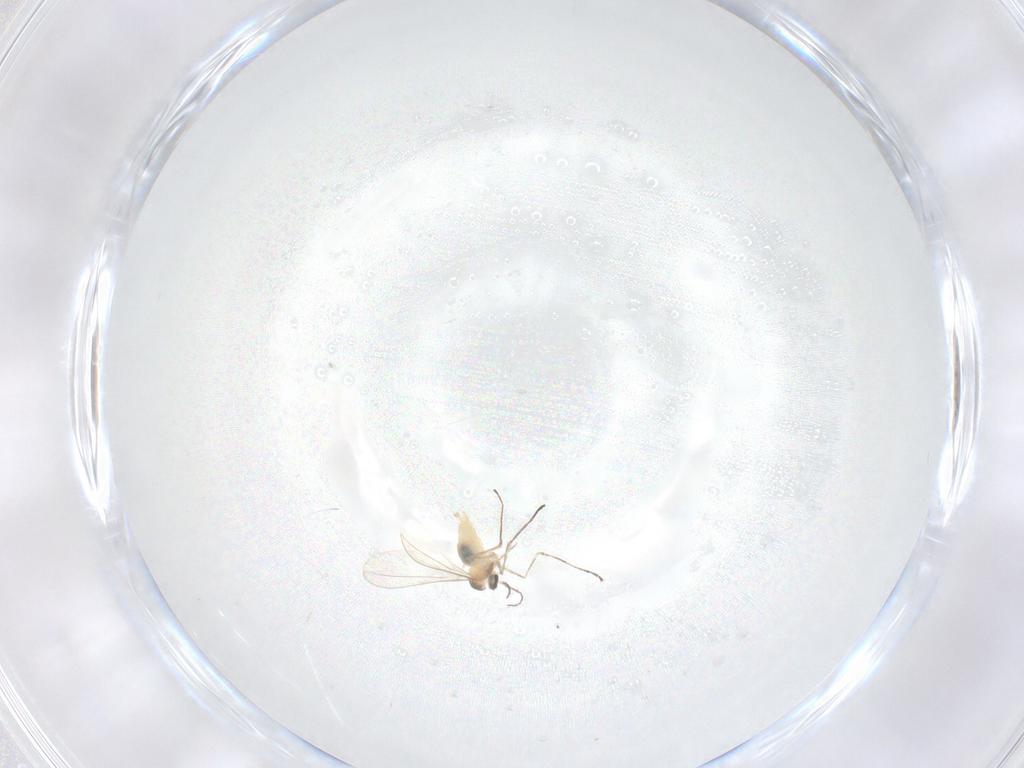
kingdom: Animalia
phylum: Arthropoda
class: Insecta
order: Diptera
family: Cecidomyiidae
